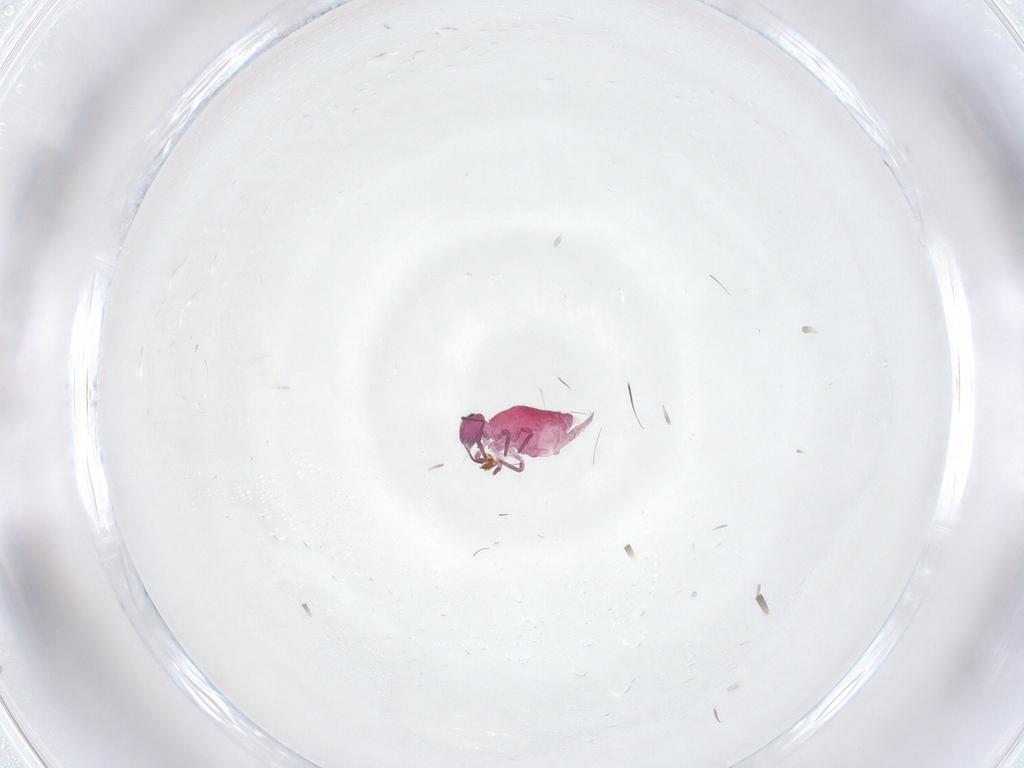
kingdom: Animalia
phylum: Arthropoda
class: Collembola
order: Symphypleona
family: Sminthuridae
